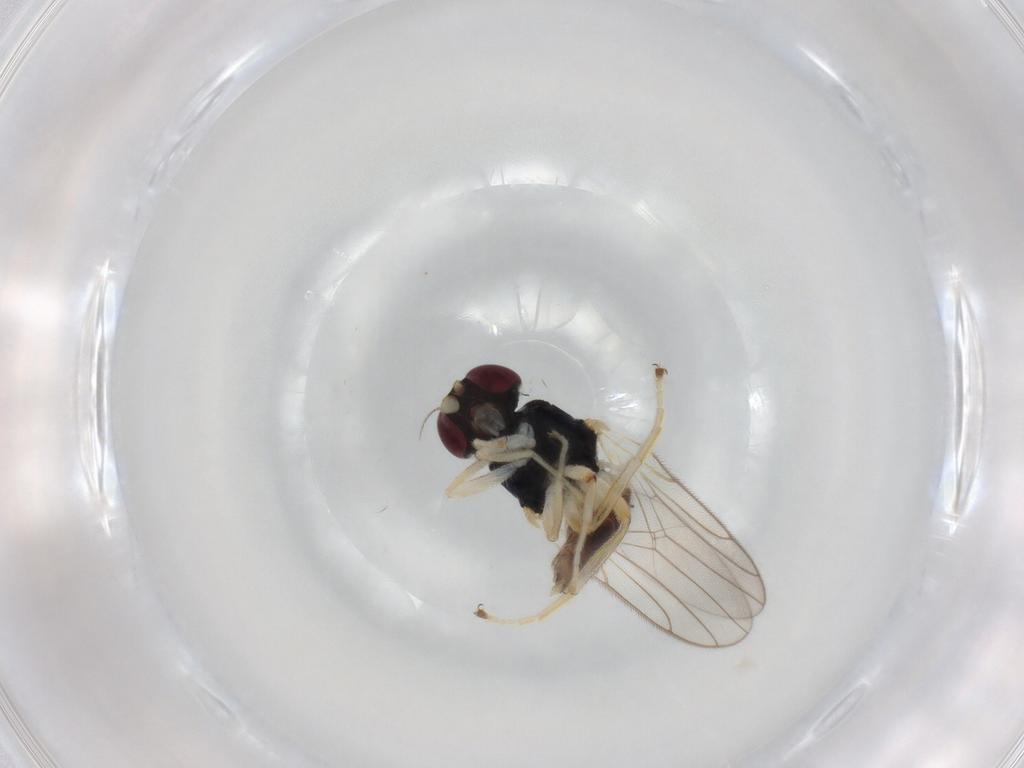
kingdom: Animalia
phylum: Arthropoda
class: Insecta
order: Diptera
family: Chloropidae
